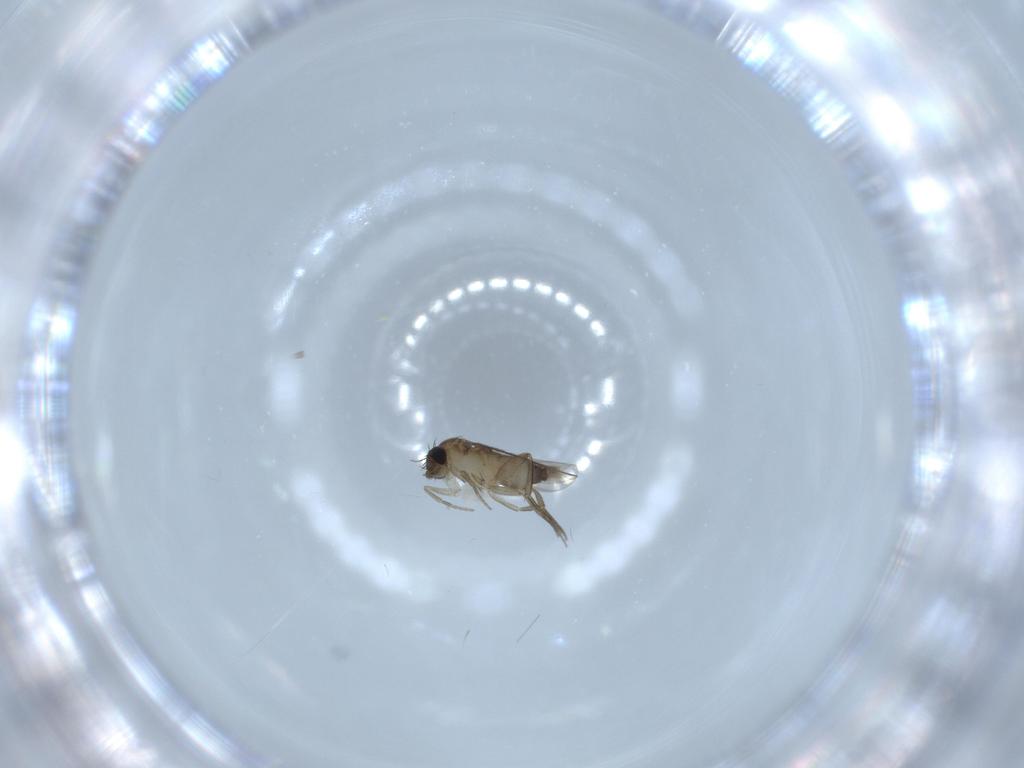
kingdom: Animalia
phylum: Arthropoda
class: Insecta
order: Diptera
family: Phoridae
